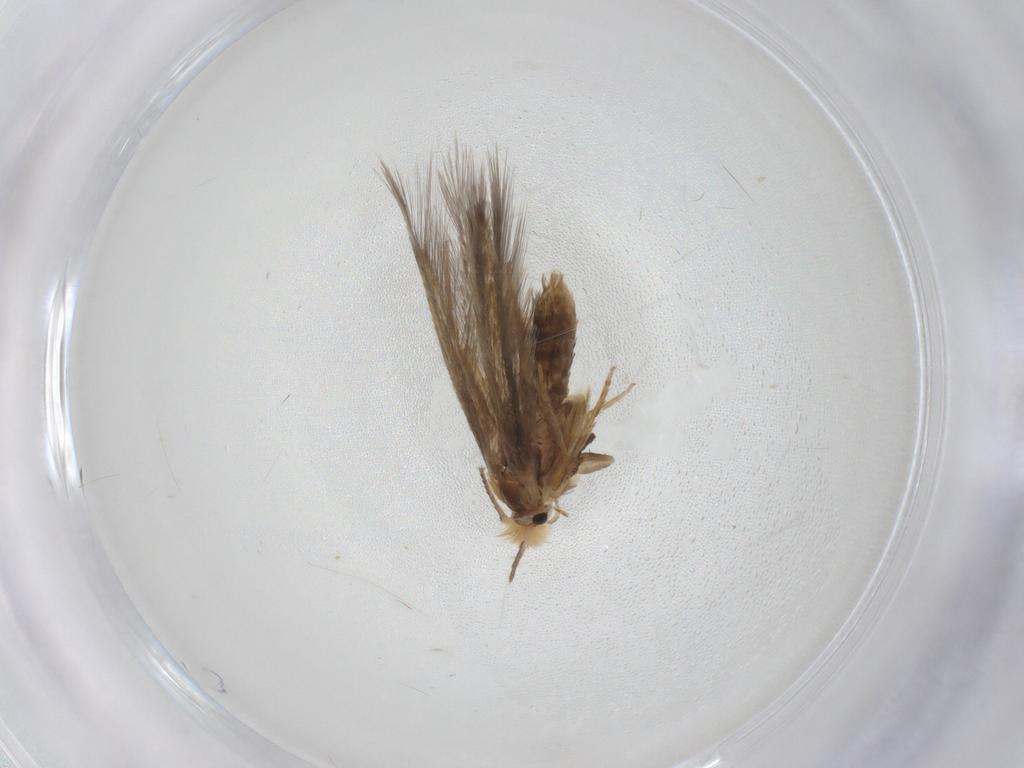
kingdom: Animalia
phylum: Arthropoda
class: Insecta
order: Lepidoptera
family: Nepticulidae
